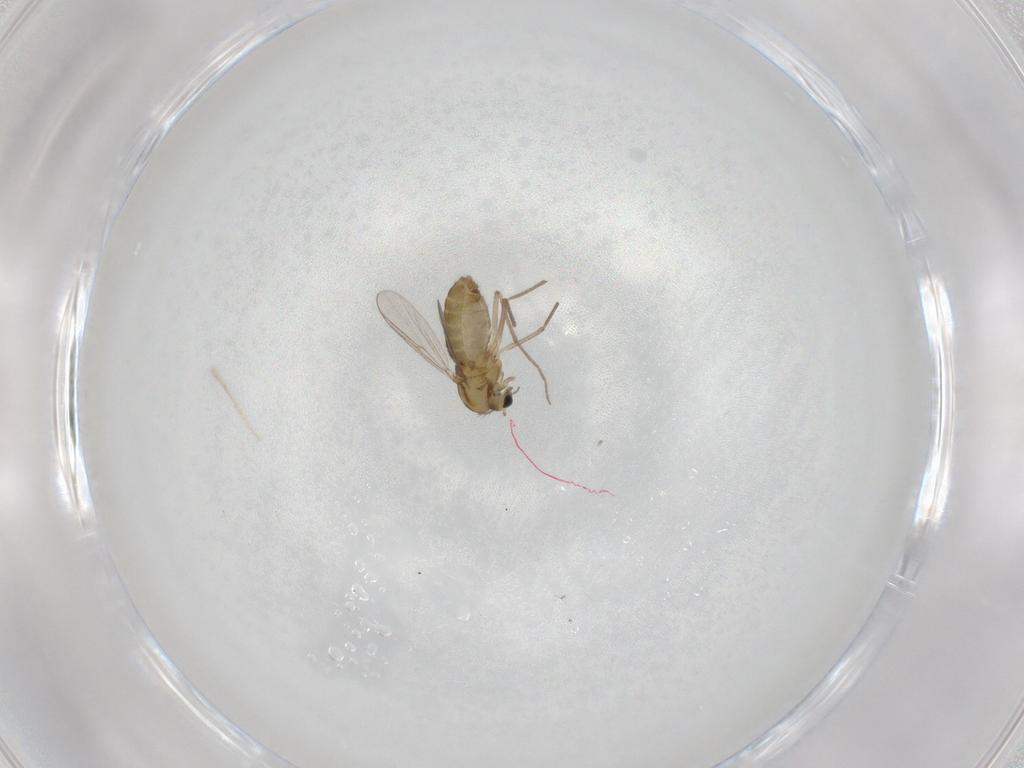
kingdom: Animalia
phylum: Arthropoda
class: Insecta
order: Diptera
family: Chironomidae
